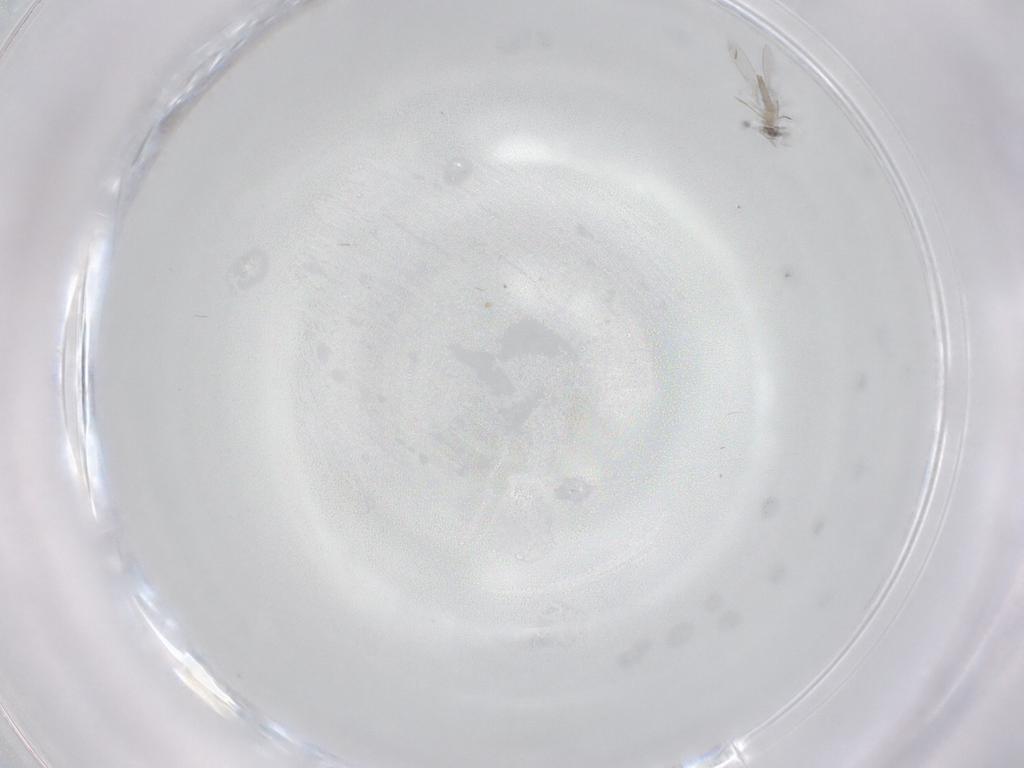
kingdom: Animalia
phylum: Arthropoda
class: Insecta
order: Diptera
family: Cecidomyiidae
